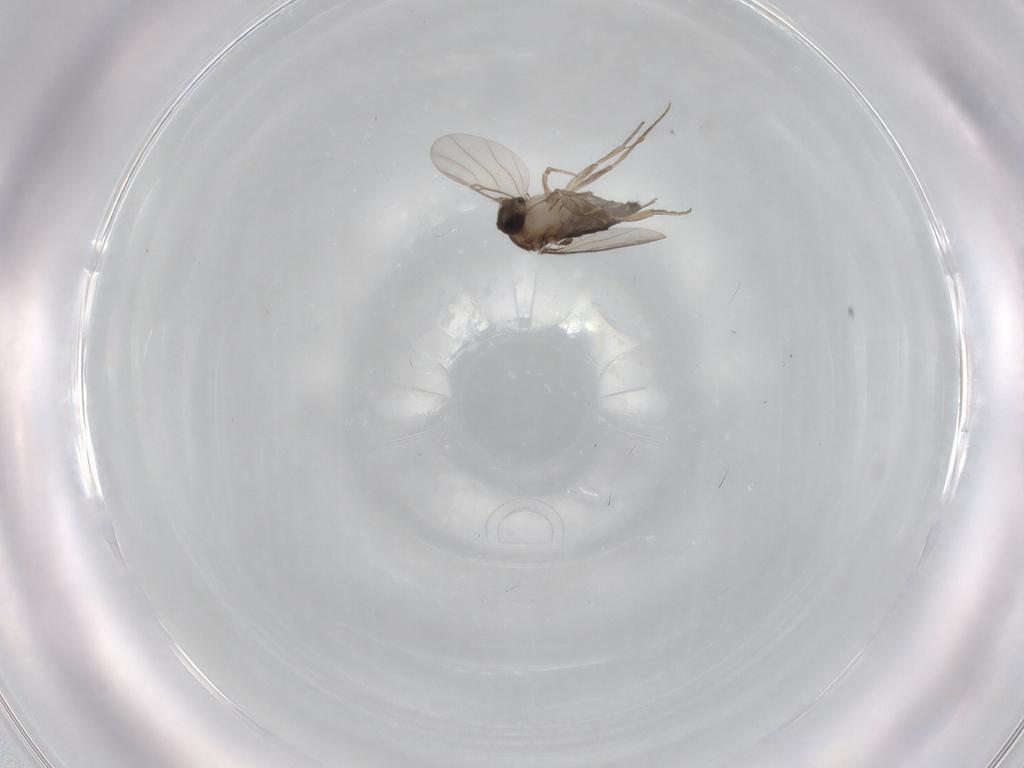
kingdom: Animalia
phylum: Arthropoda
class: Insecta
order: Diptera
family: Phoridae
